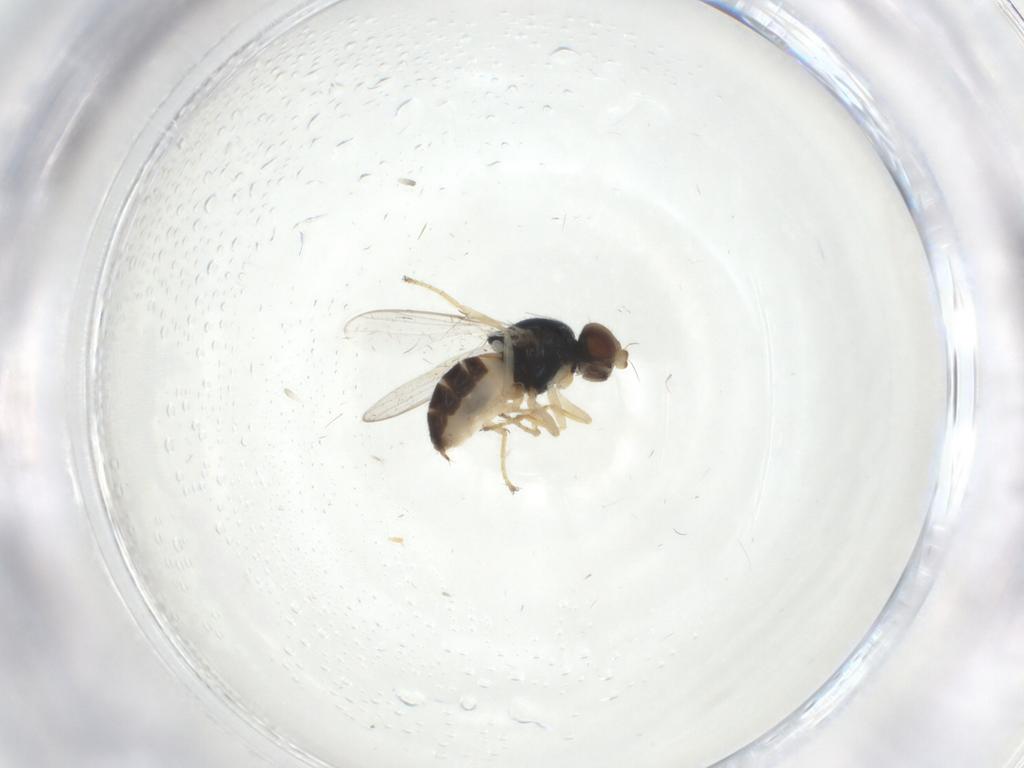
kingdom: Animalia
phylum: Arthropoda
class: Insecta
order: Diptera
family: Chloropidae
